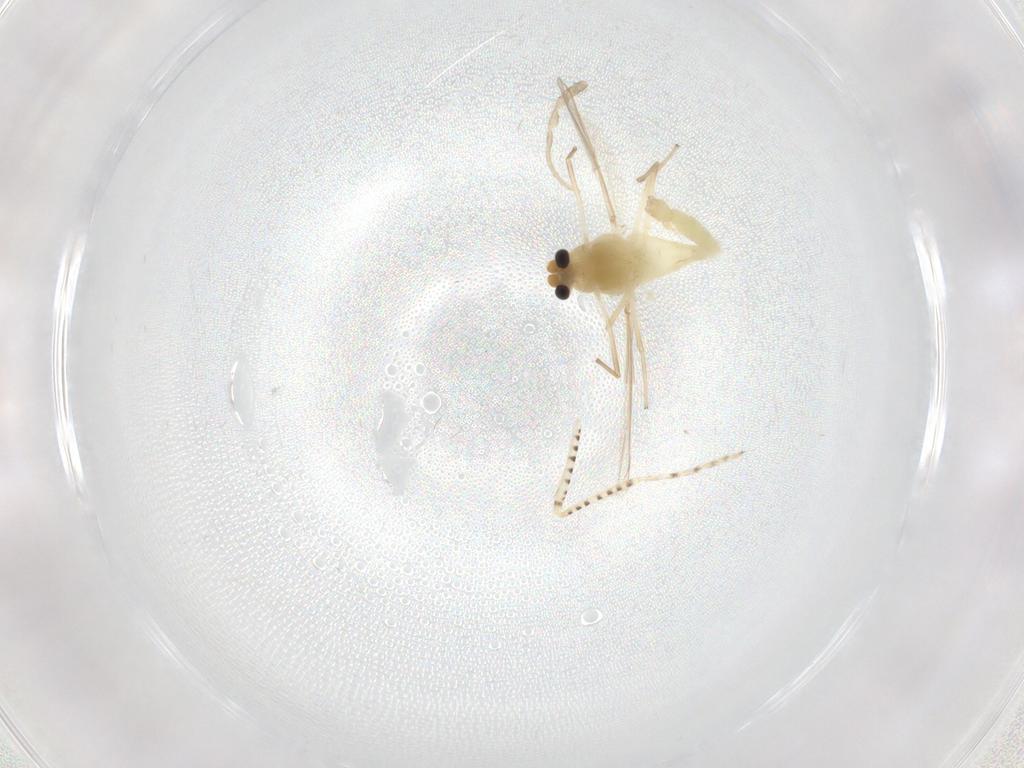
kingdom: Animalia
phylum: Arthropoda
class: Insecta
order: Diptera
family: Chironomidae
